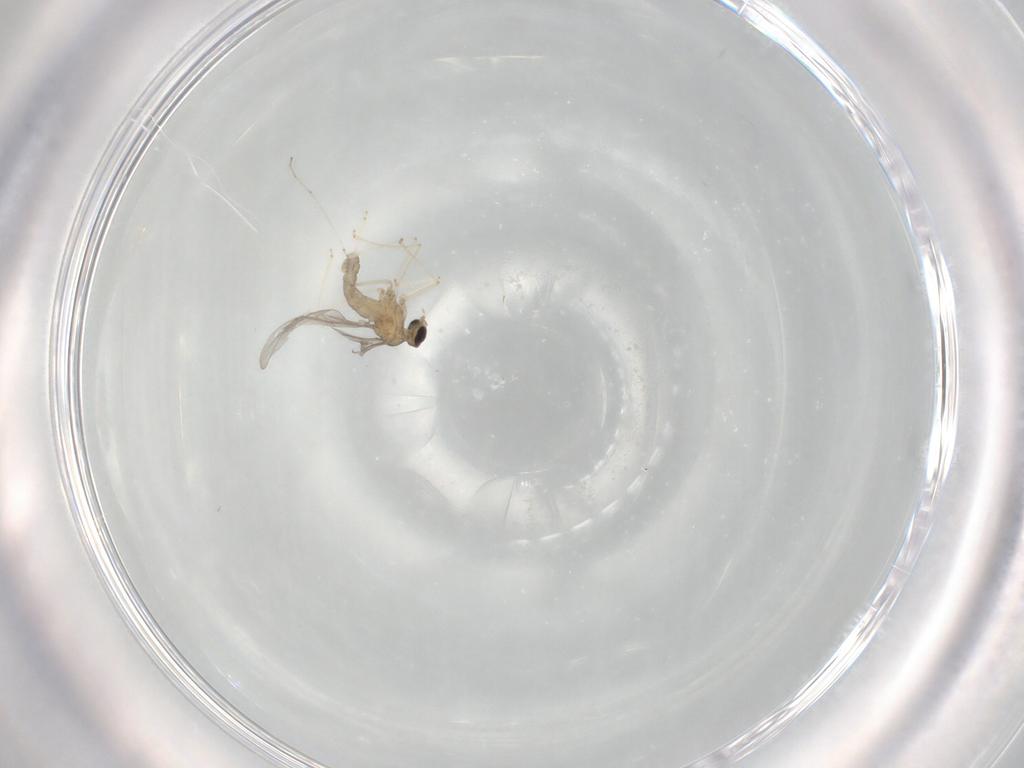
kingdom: Animalia
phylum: Arthropoda
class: Insecta
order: Diptera
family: Cecidomyiidae
